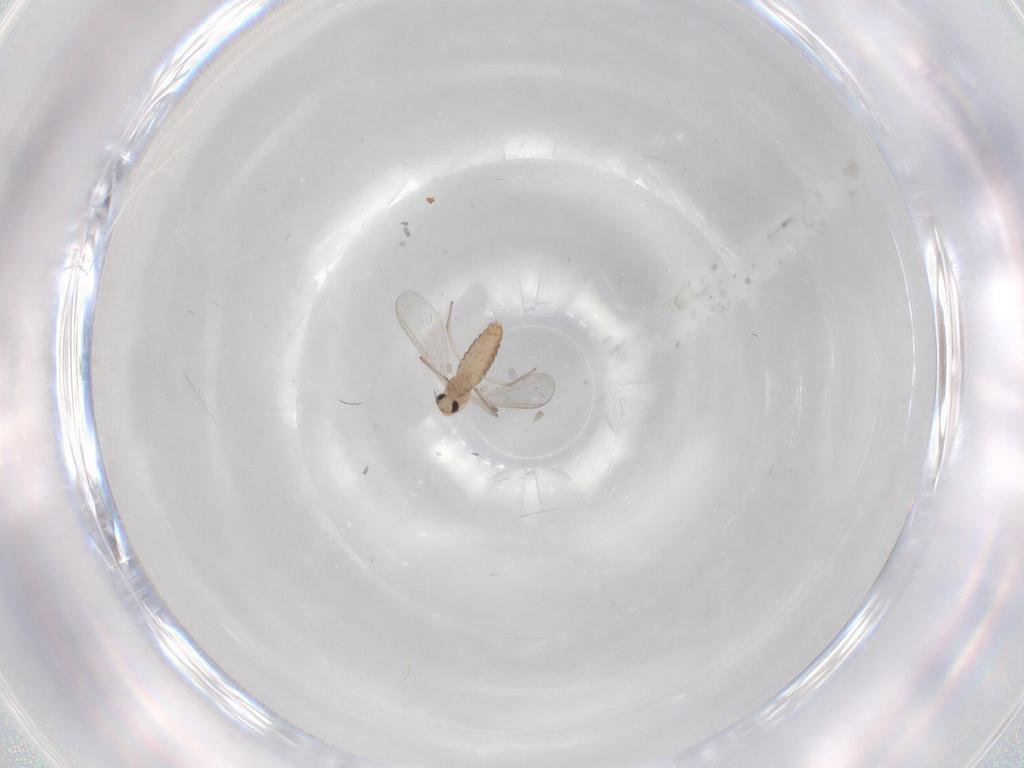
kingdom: Animalia
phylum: Arthropoda
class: Insecta
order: Diptera
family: Chironomidae
